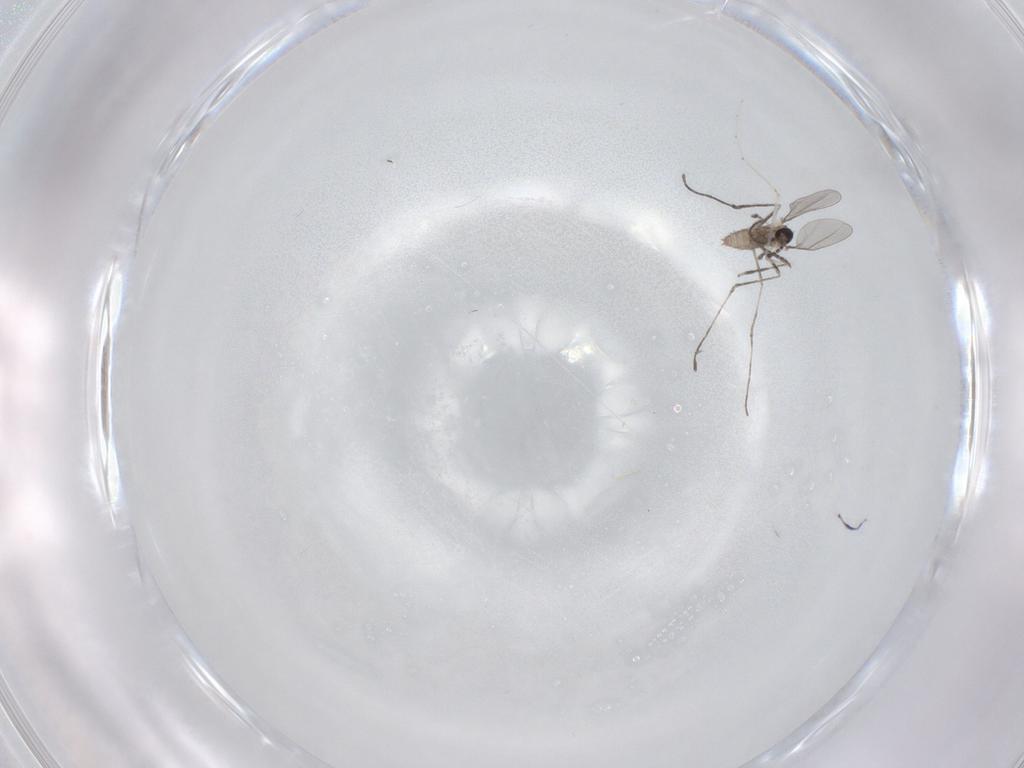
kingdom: Animalia
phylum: Arthropoda
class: Insecta
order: Diptera
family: Cecidomyiidae
